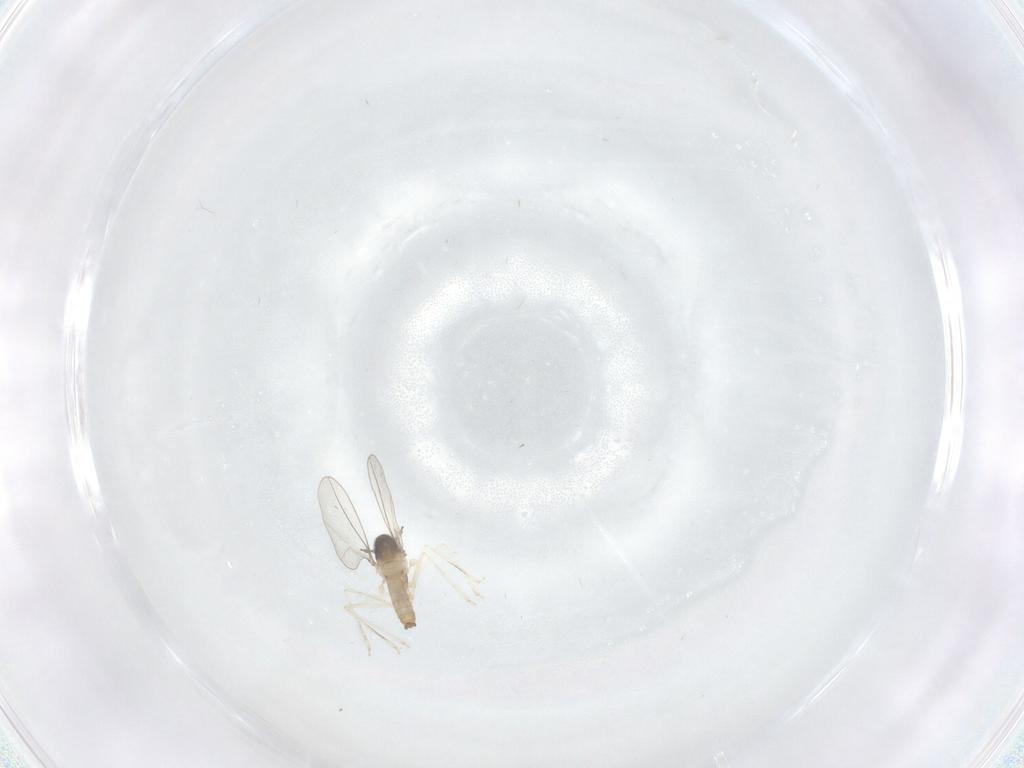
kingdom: Animalia
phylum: Arthropoda
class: Insecta
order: Diptera
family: Cecidomyiidae
